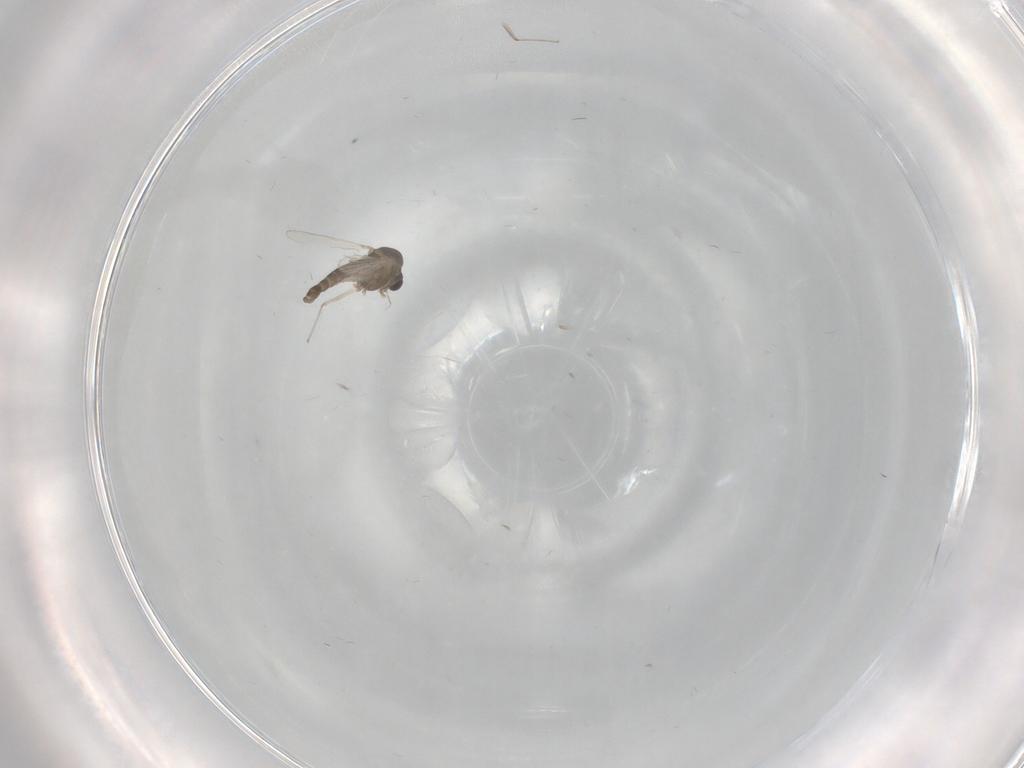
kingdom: Animalia
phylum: Arthropoda
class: Insecta
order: Diptera
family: Chironomidae
